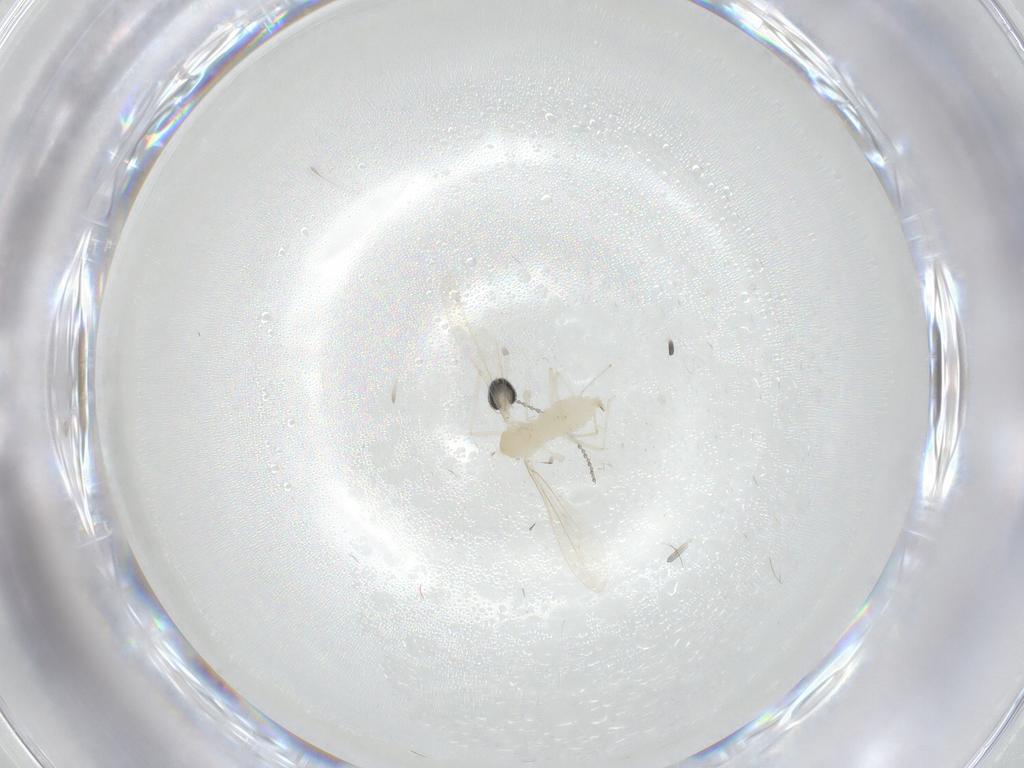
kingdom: Animalia
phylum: Arthropoda
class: Insecta
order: Diptera
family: Cecidomyiidae
